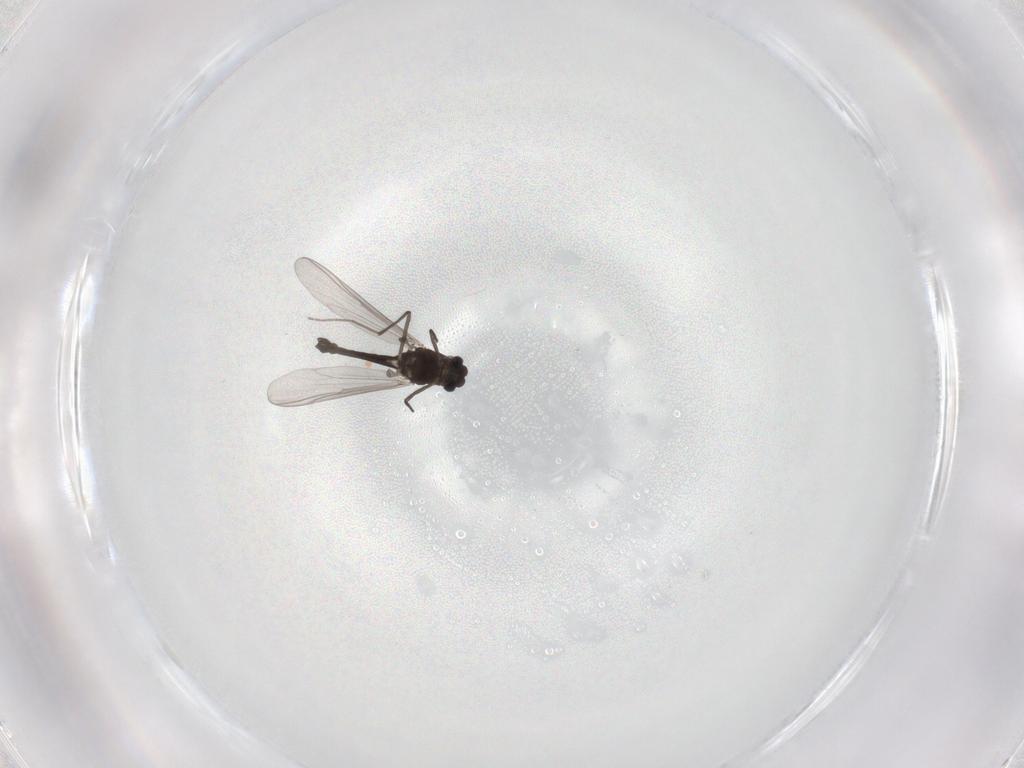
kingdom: Animalia
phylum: Arthropoda
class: Insecta
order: Diptera
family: Chironomidae
